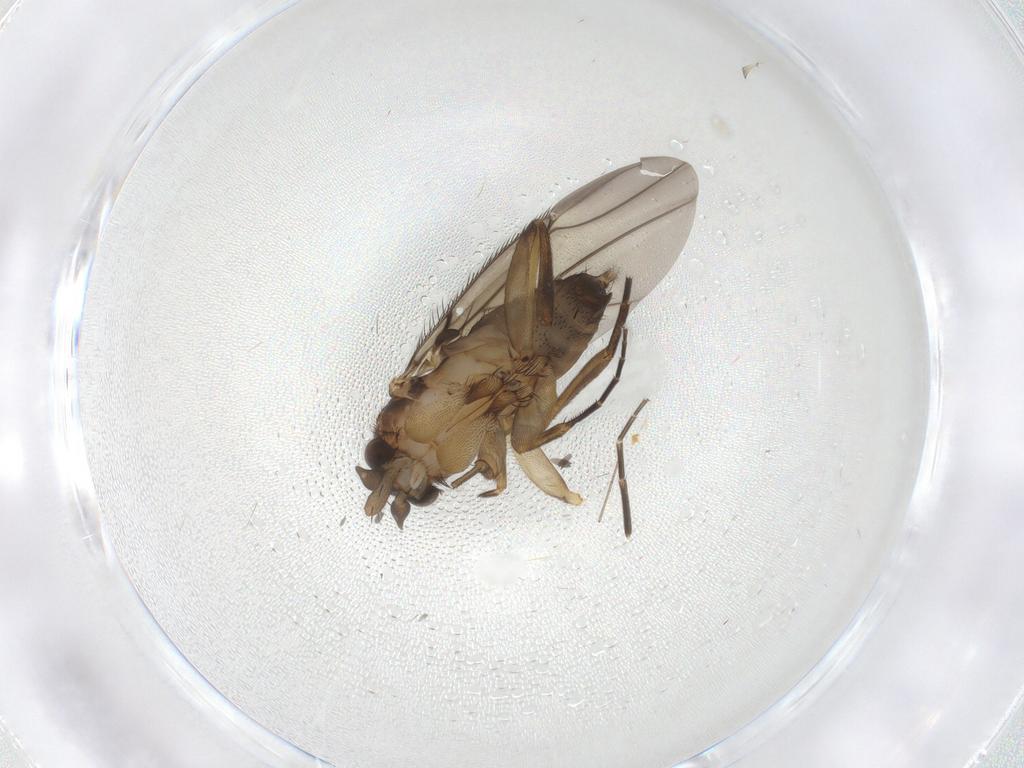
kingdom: Animalia
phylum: Arthropoda
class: Insecta
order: Diptera
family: Phoridae
